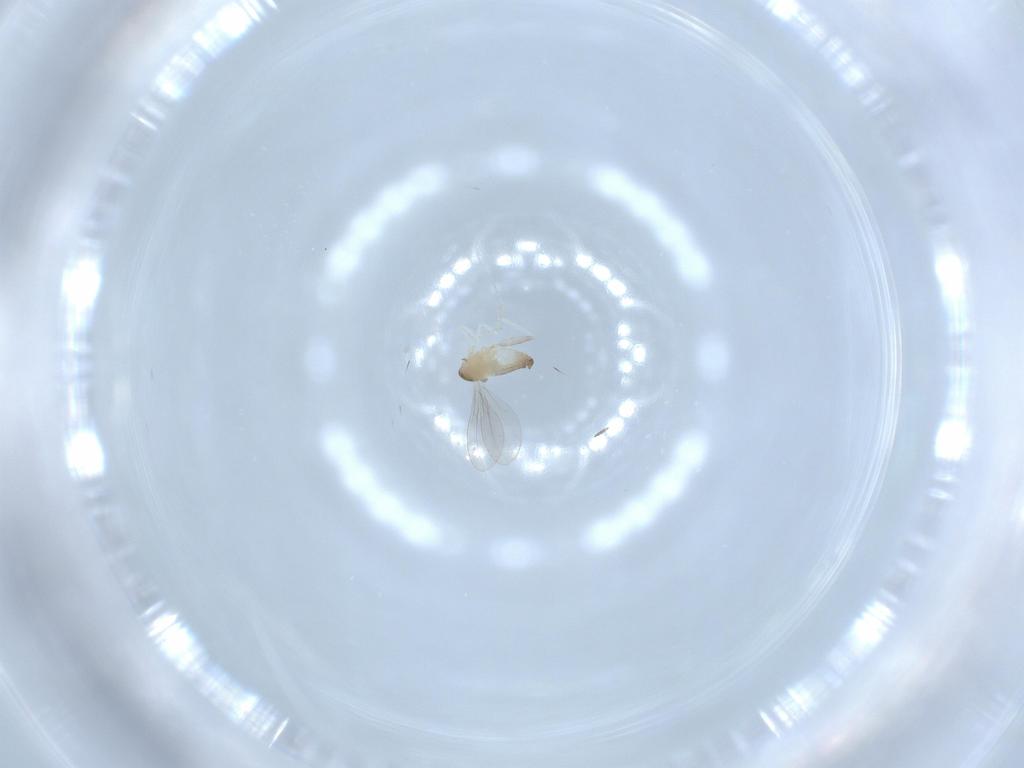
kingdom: Animalia
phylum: Arthropoda
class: Insecta
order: Diptera
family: Cecidomyiidae
